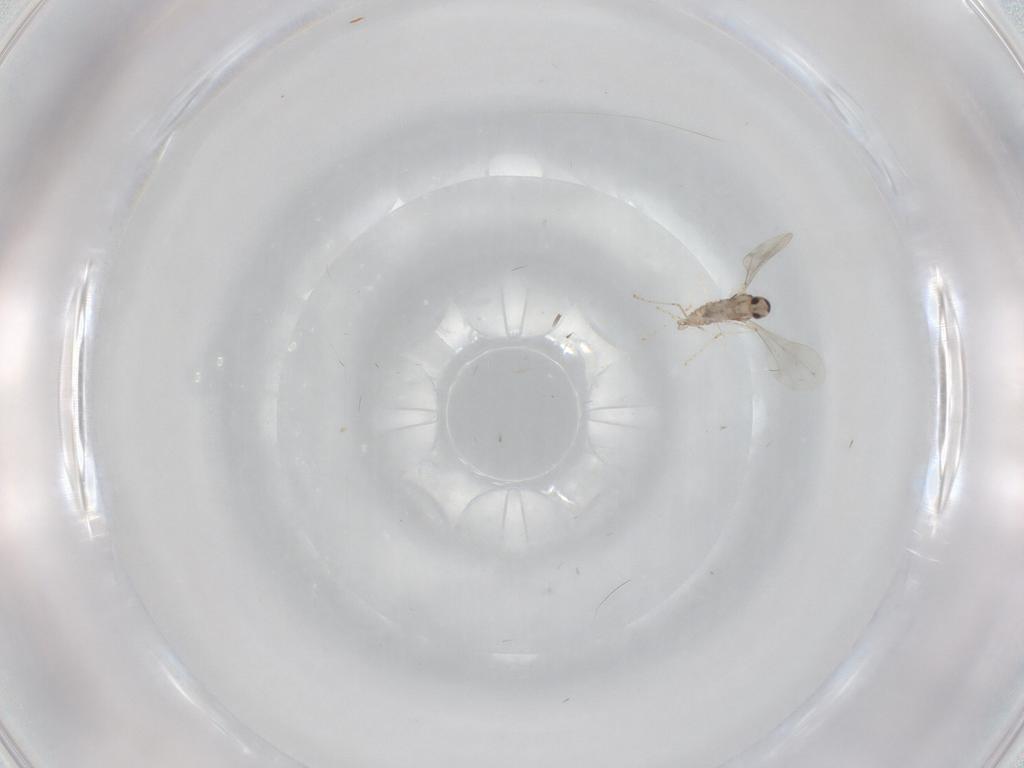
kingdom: Animalia
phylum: Arthropoda
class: Insecta
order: Diptera
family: Cecidomyiidae
